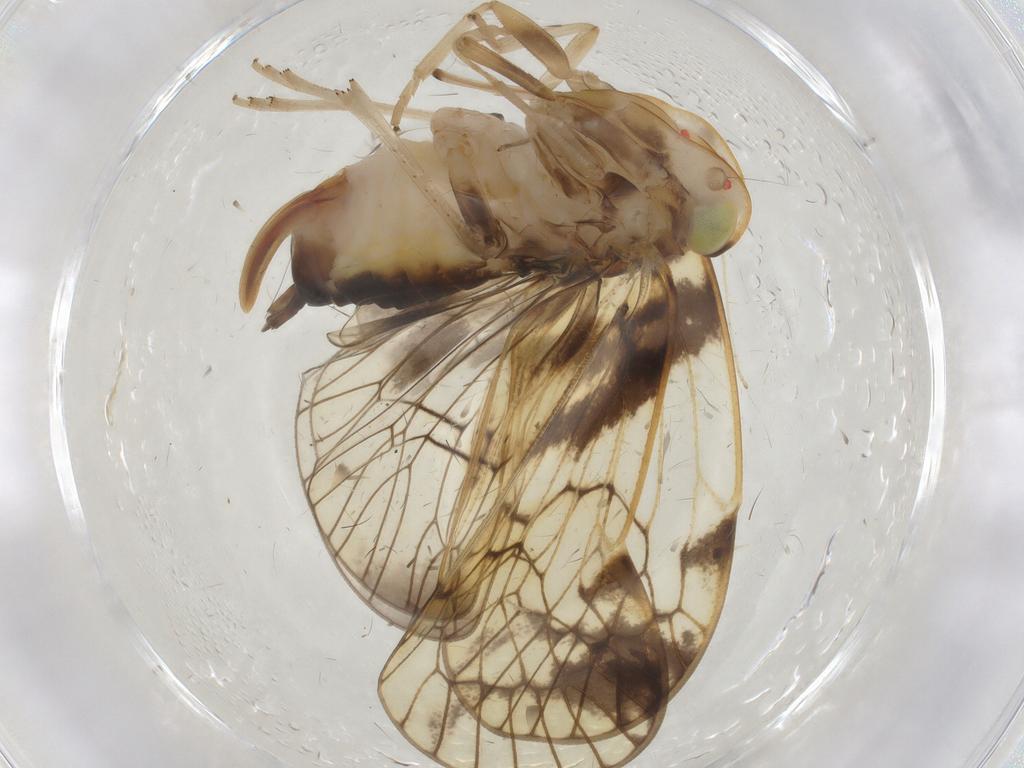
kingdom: Animalia
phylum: Arthropoda
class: Insecta
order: Hemiptera
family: Cixiidae
